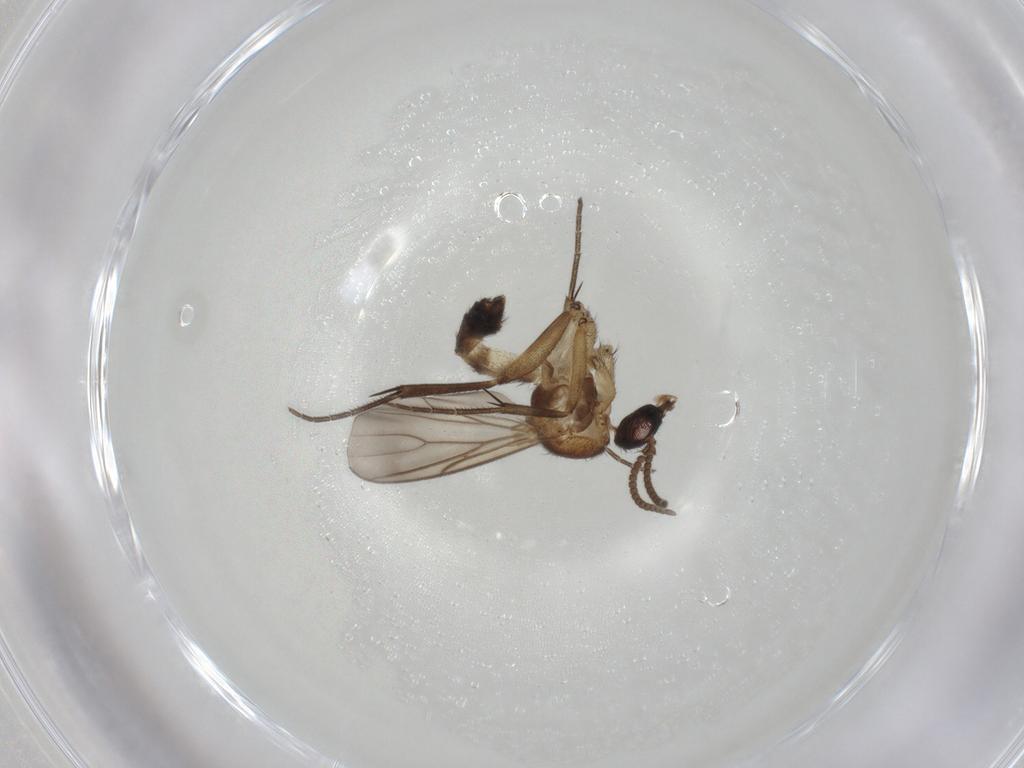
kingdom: Animalia
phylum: Arthropoda
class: Insecta
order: Diptera
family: Mycetophilidae
